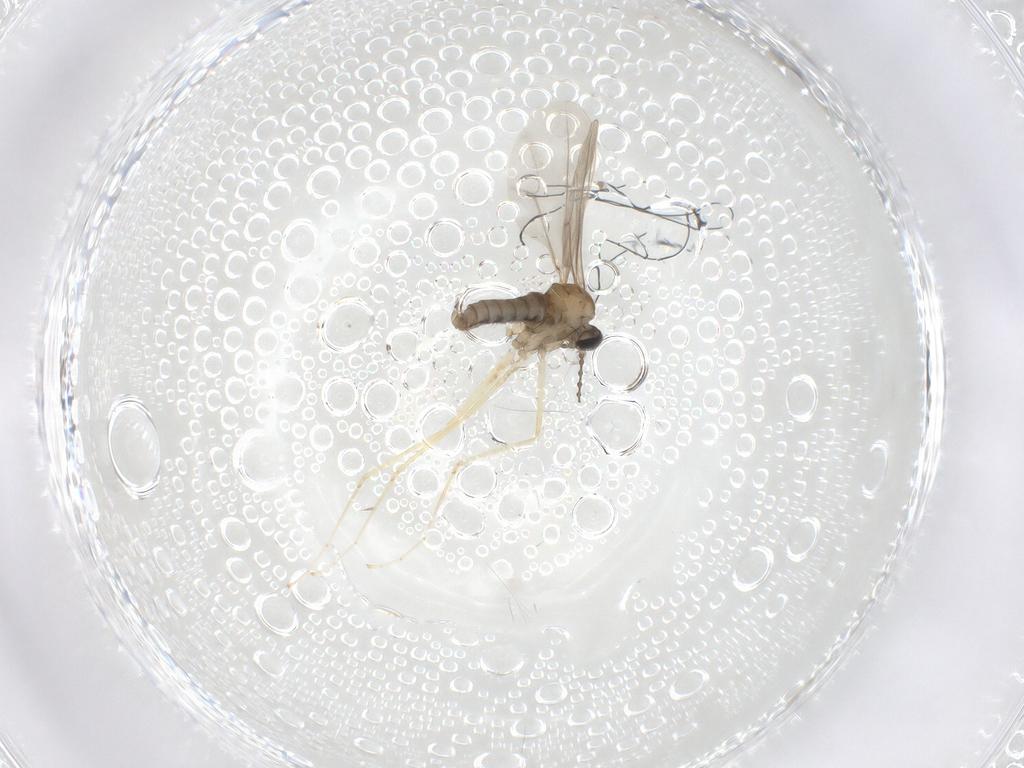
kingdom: Animalia
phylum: Arthropoda
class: Insecta
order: Diptera
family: Cecidomyiidae
